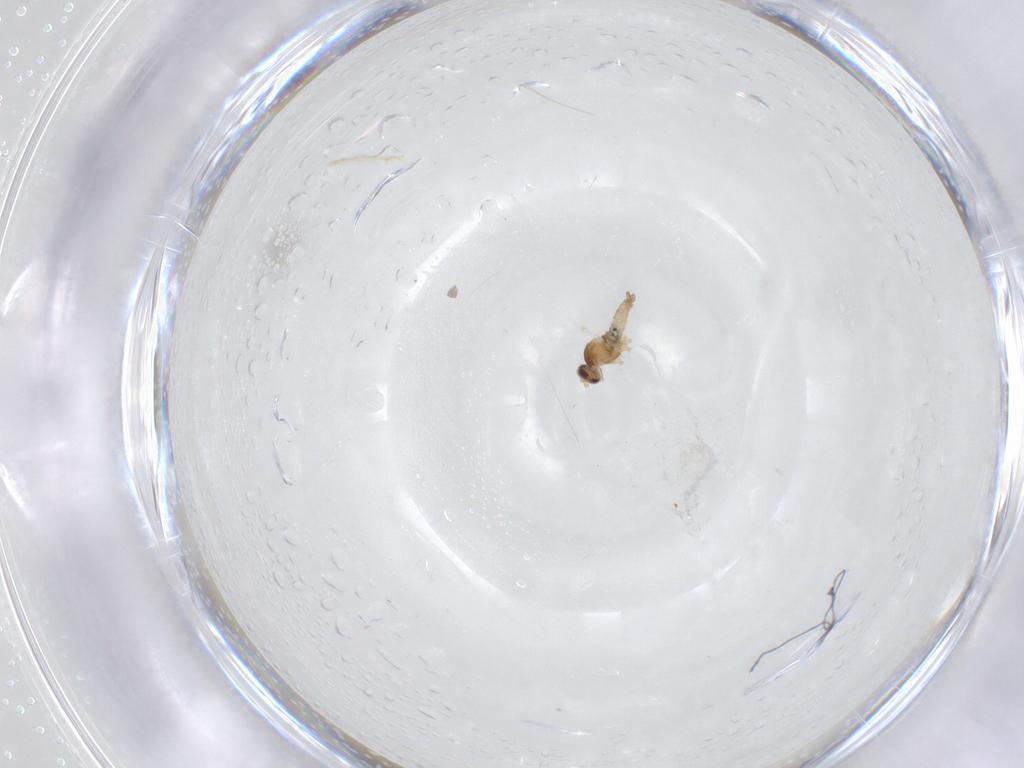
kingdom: Animalia
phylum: Arthropoda
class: Insecta
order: Diptera
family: Cecidomyiidae
